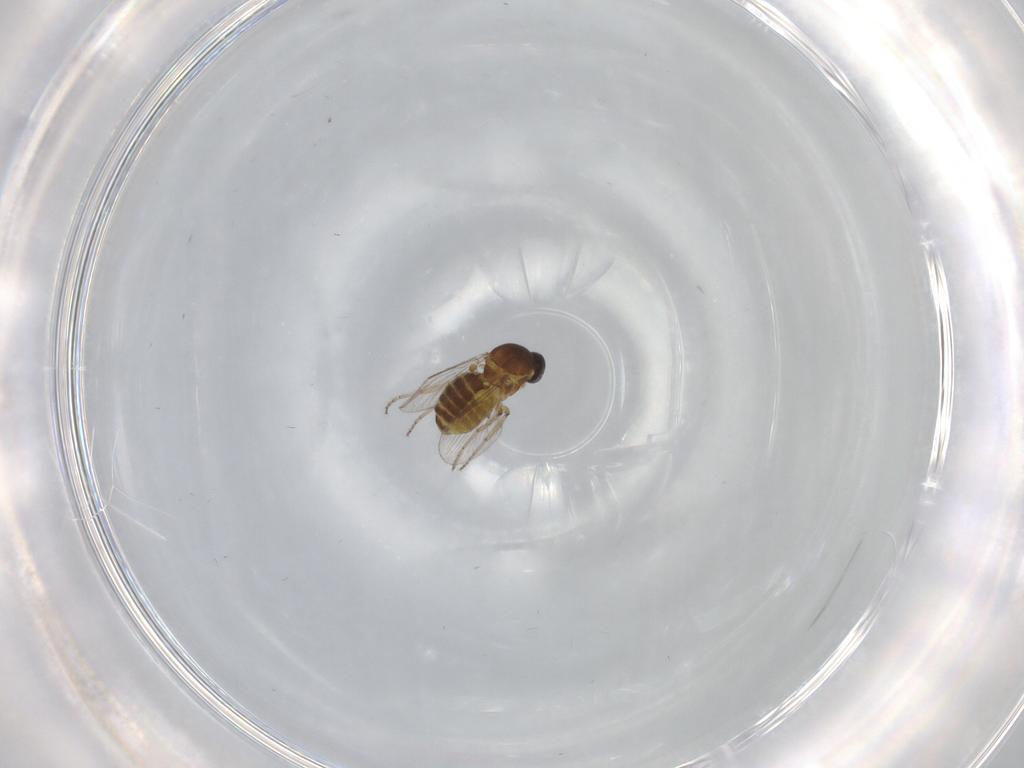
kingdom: Animalia
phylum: Arthropoda
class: Insecta
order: Diptera
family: Ceratopogonidae
